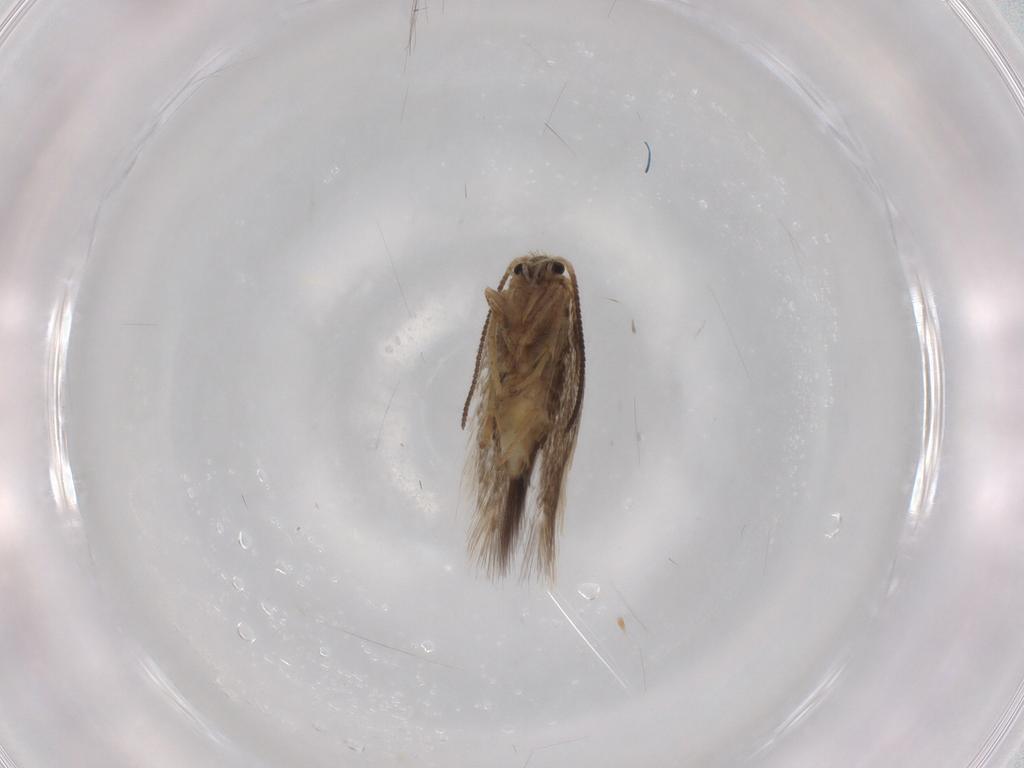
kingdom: Animalia
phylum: Arthropoda
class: Insecta
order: Lepidoptera
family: Nepticulidae
